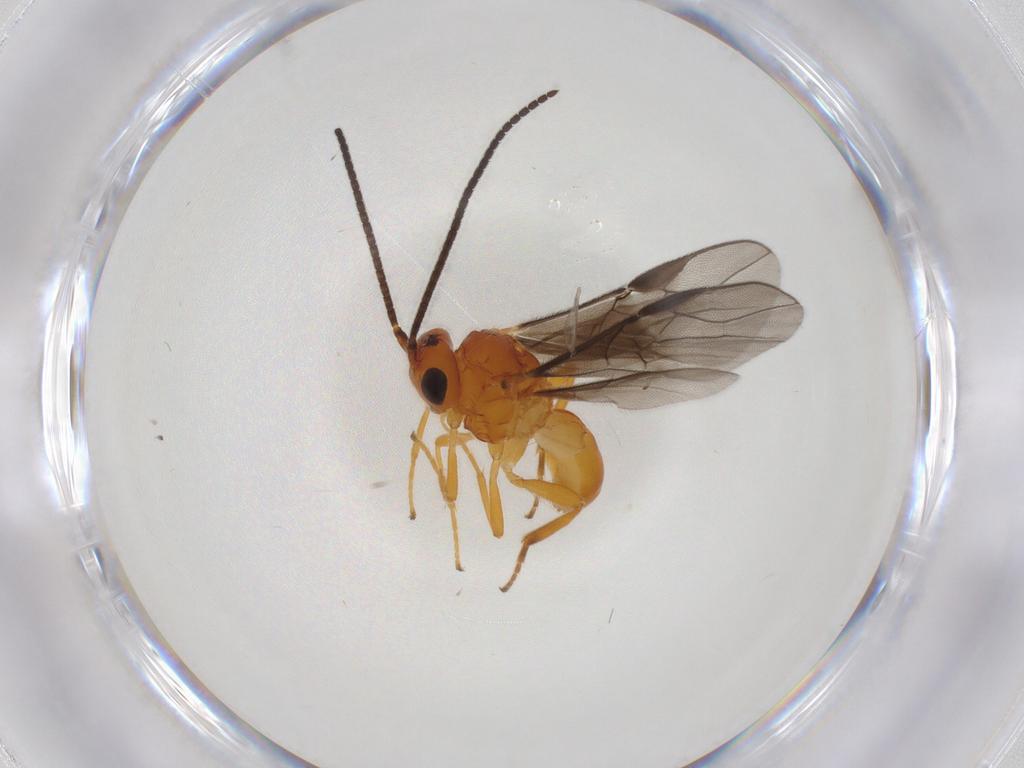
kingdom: Animalia
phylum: Arthropoda
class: Insecta
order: Hymenoptera
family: Braconidae
